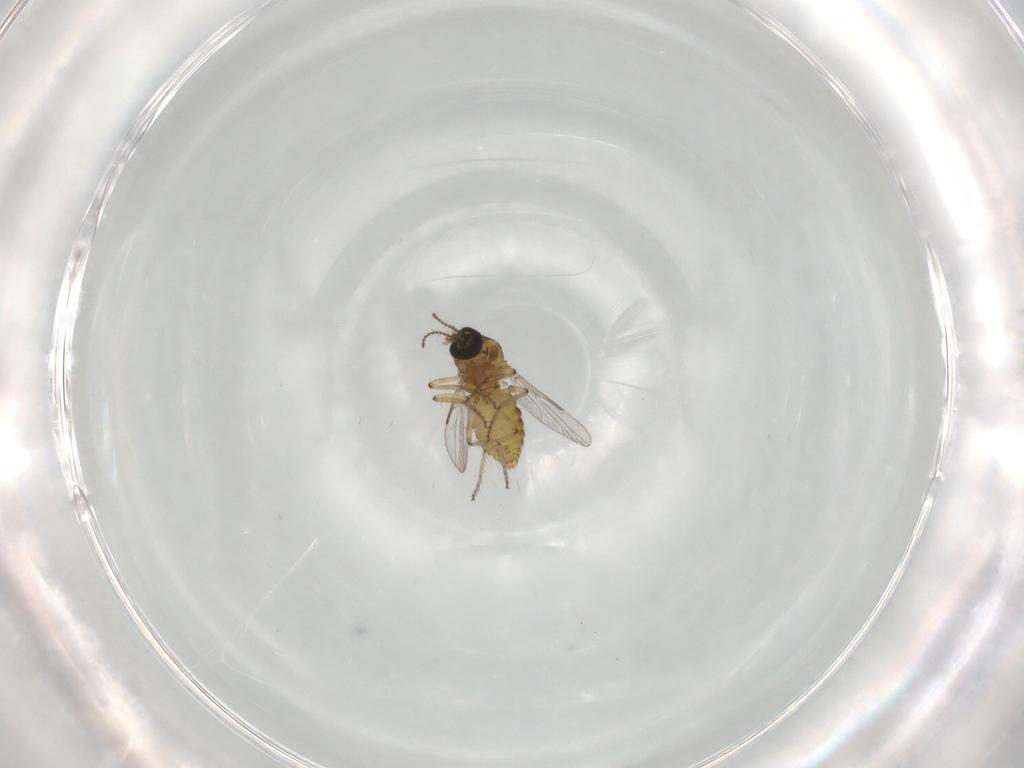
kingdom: Animalia
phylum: Arthropoda
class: Insecta
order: Diptera
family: Ceratopogonidae
